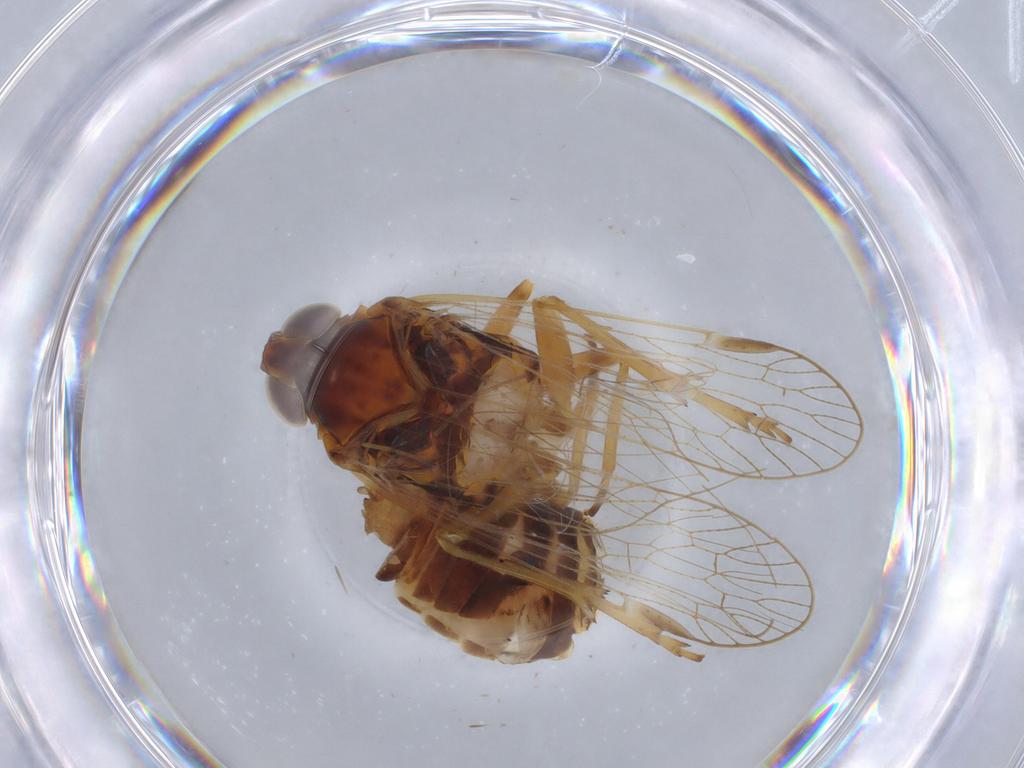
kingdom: Animalia
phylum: Arthropoda
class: Insecta
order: Hemiptera
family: Cixiidae
